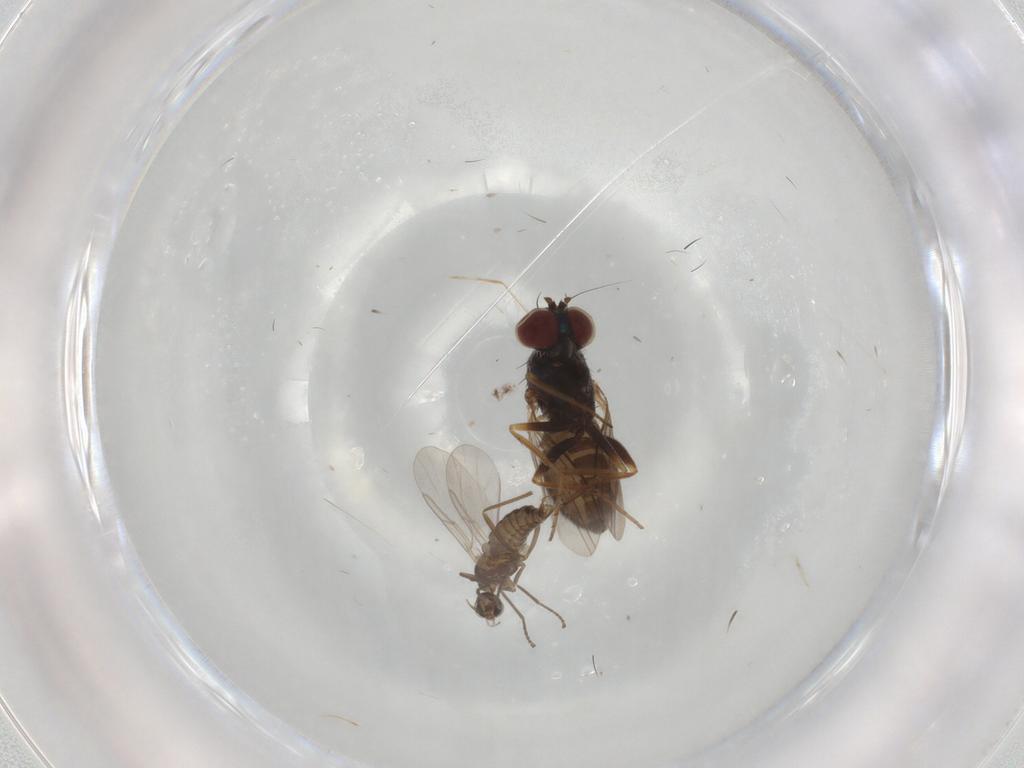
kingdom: Animalia
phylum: Arthropoda
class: Insecta
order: Diptera
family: Dolichopodidae
